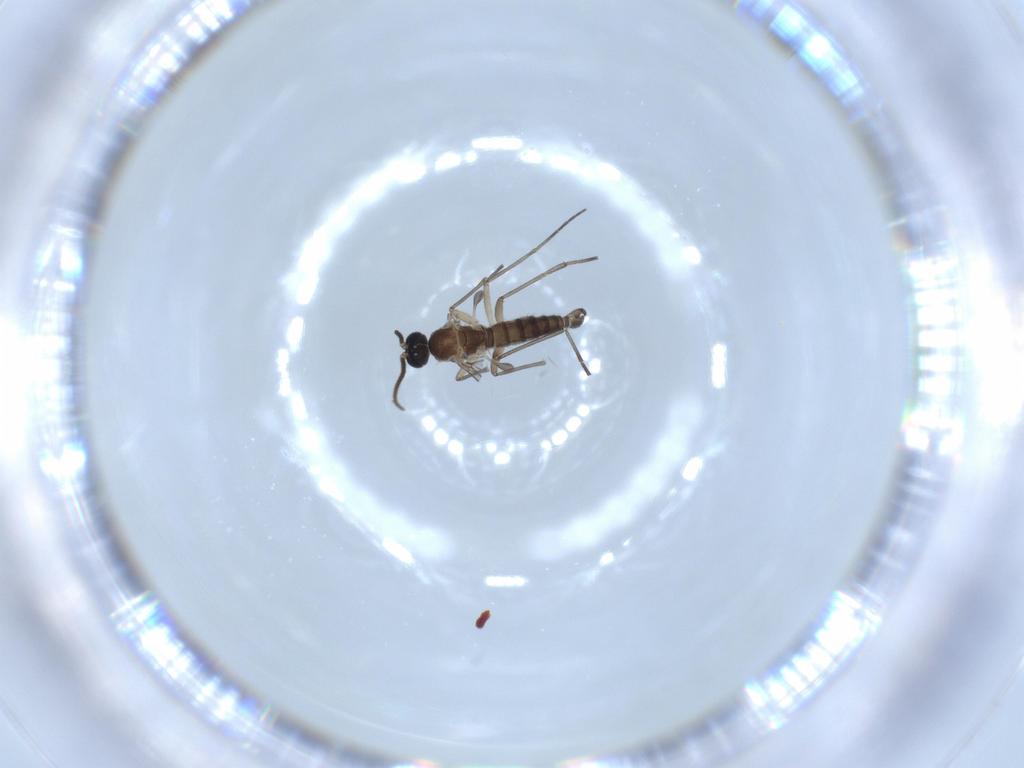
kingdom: Animalia
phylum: Arthropoda
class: Insecta
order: Diptera
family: Sciaridae
